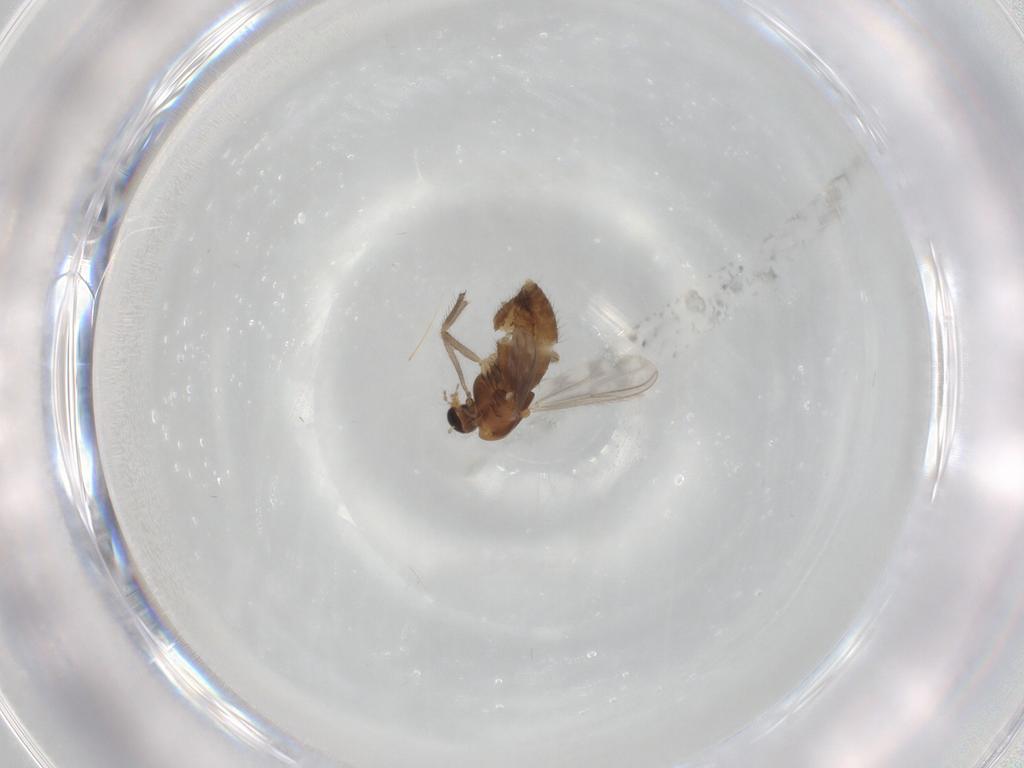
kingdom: Animalia
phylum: Arthropoda
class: Insecta
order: Diptera
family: Chironomidae
